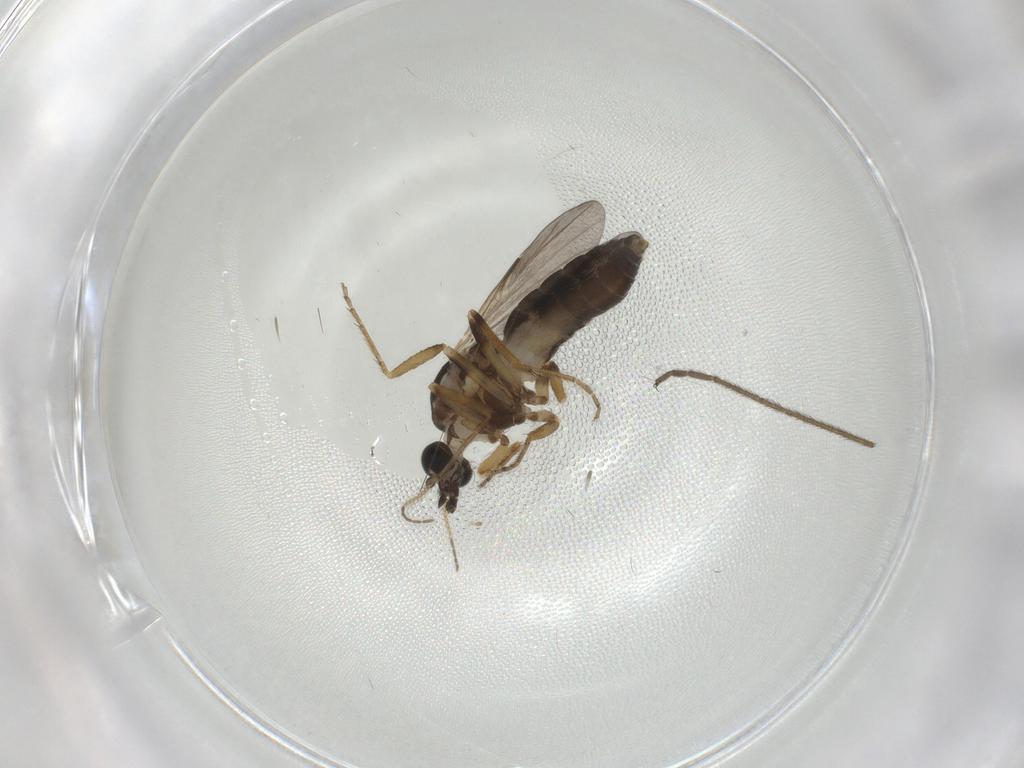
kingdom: Animalia
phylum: Arthropoda
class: Insecta
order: Diptera
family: Ceratopogonidae
